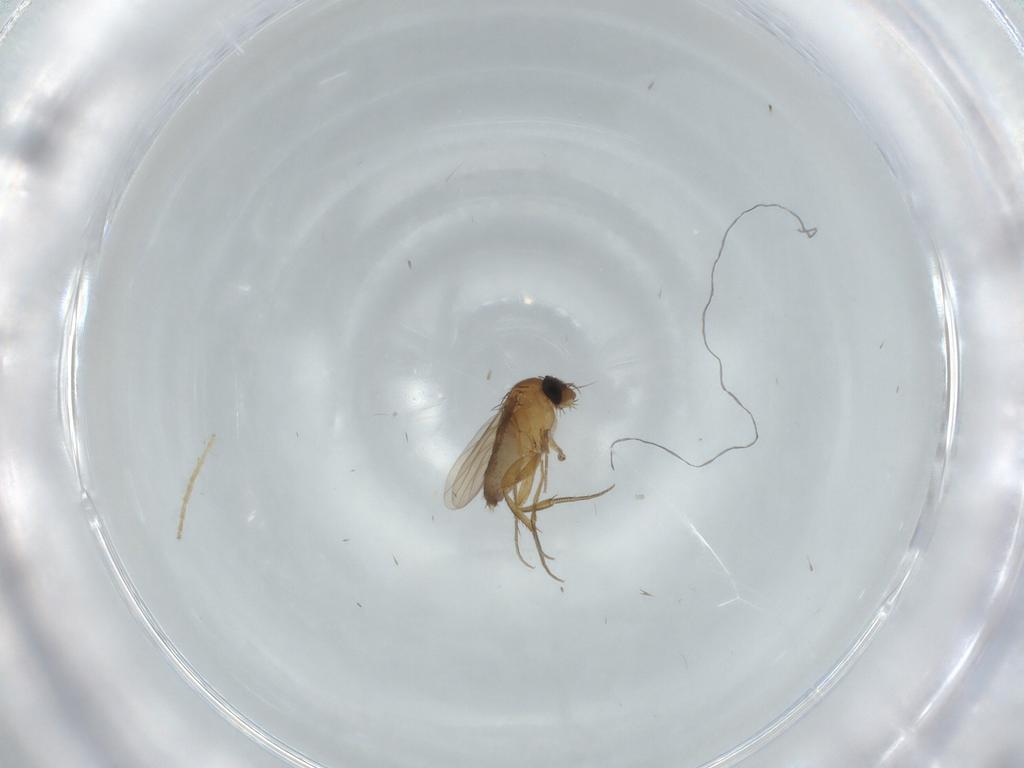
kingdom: Animalia
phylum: Arthropoda
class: Insecta
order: Diptera
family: Phoridae
